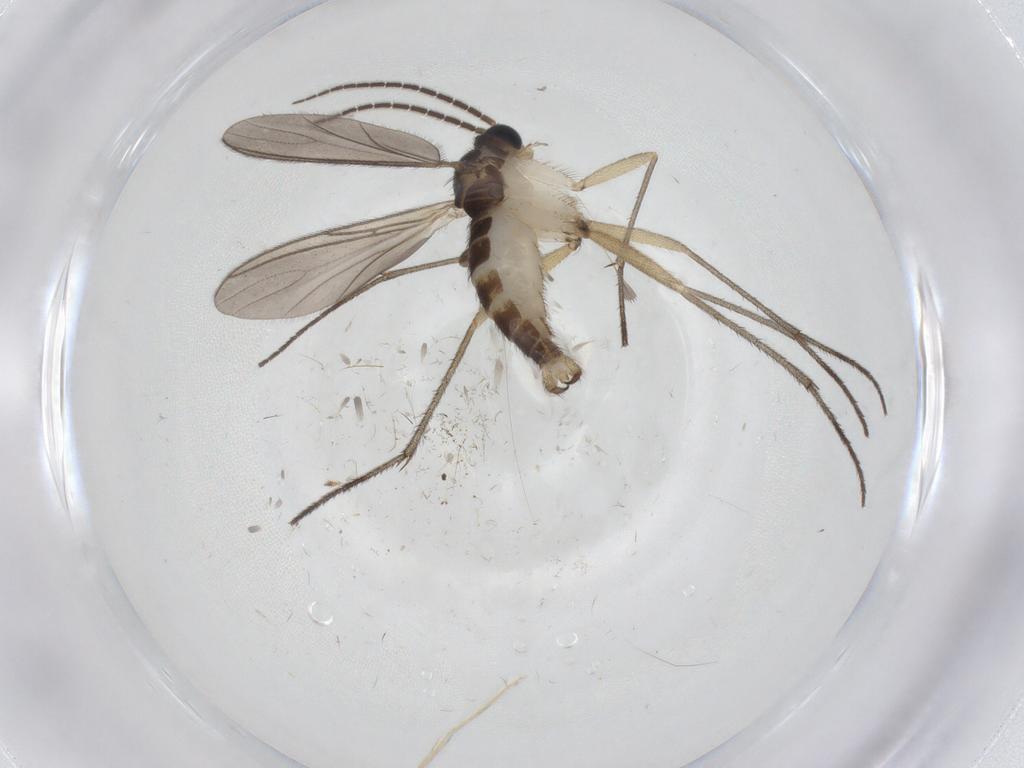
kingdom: Animalia
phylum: Arthropoda
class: Insecta
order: Diptera
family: Sciaridae
